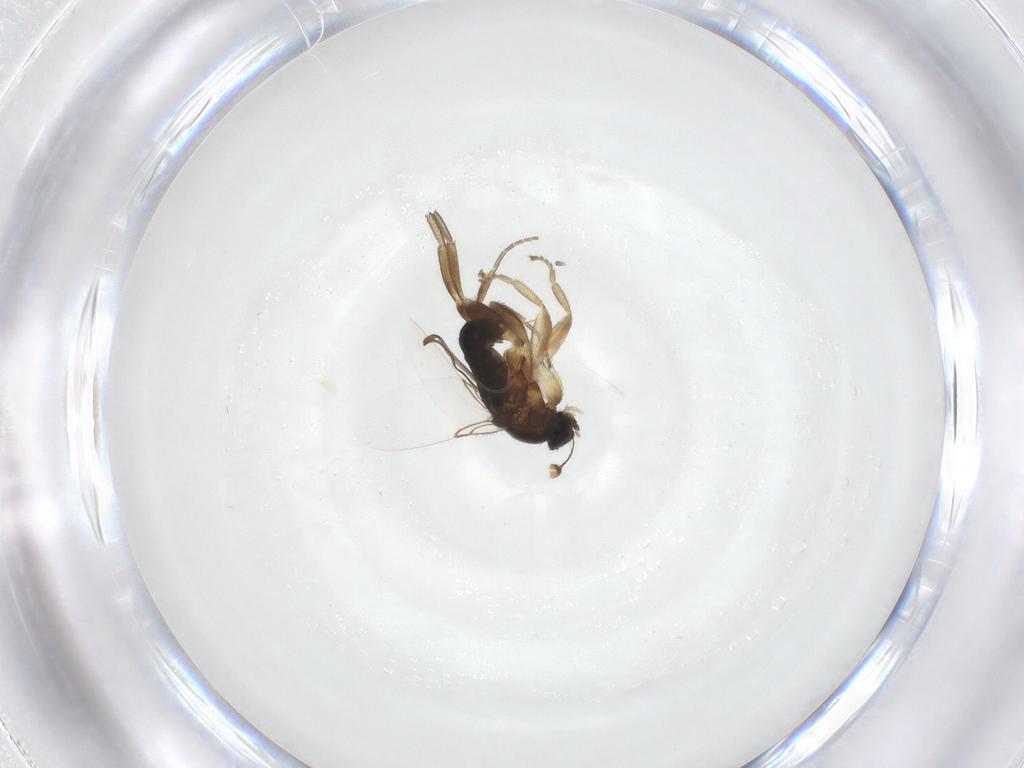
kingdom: Animalia
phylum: Arthropoda
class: Insecta
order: Diptera
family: Phoridae
